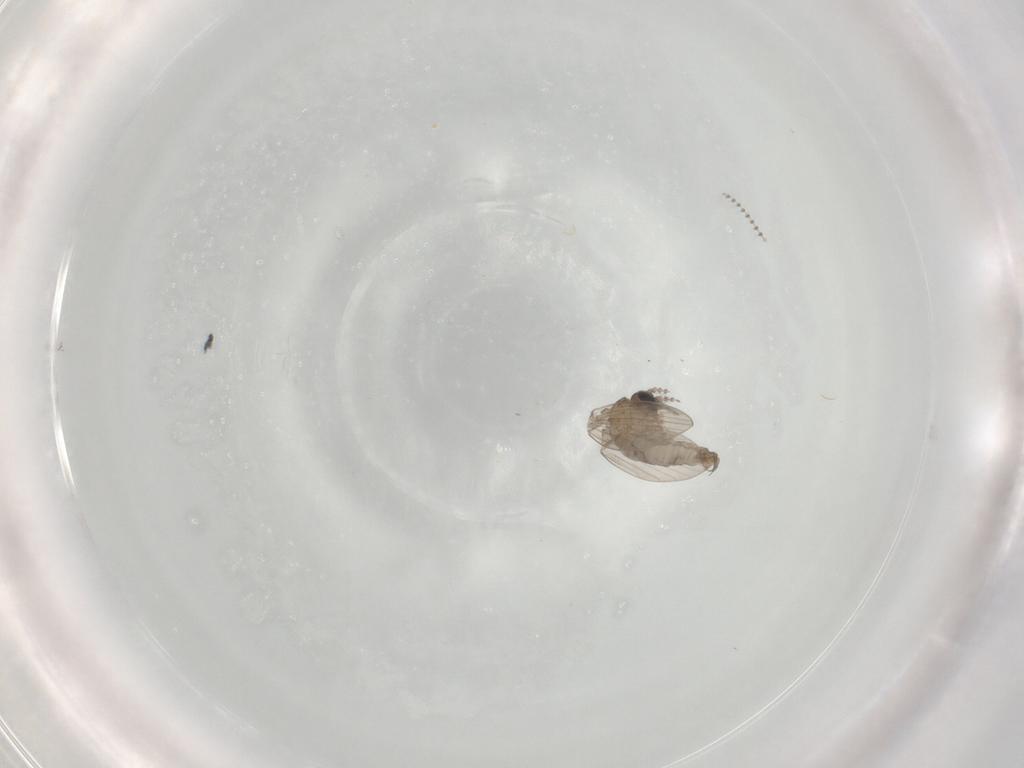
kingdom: Animalia
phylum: Arthropoda
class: Insecta
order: Diptera
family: Psychodidae
